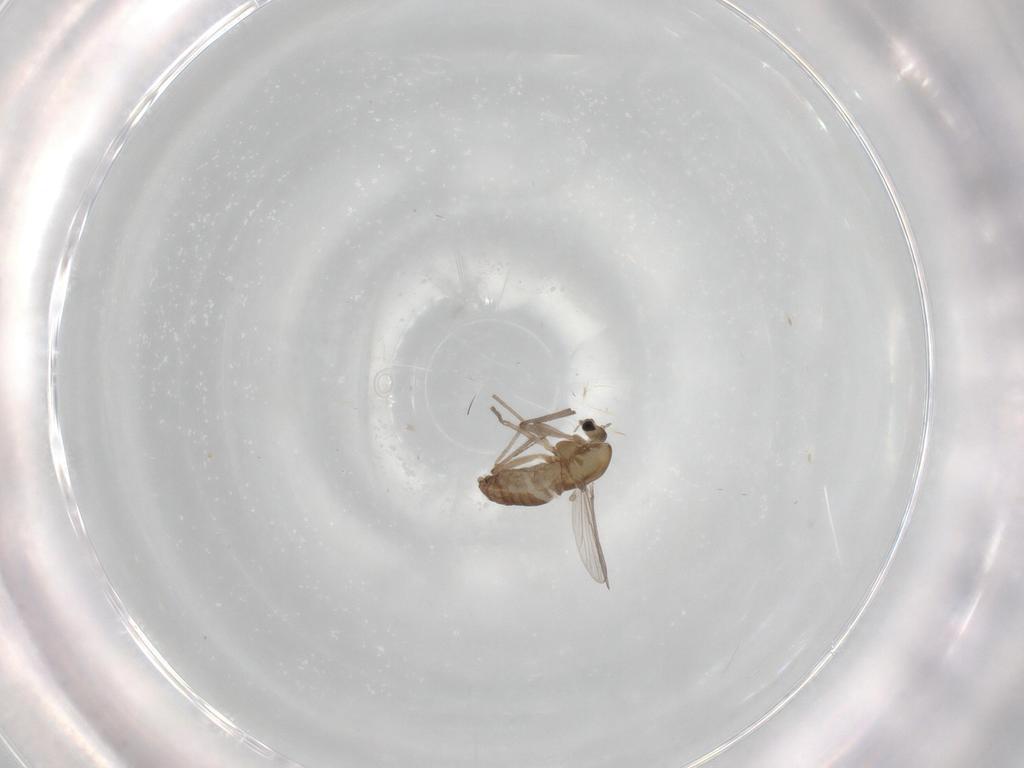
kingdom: Animalia
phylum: Arthropoda
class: Insecta
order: Diptera
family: Chironomidae
